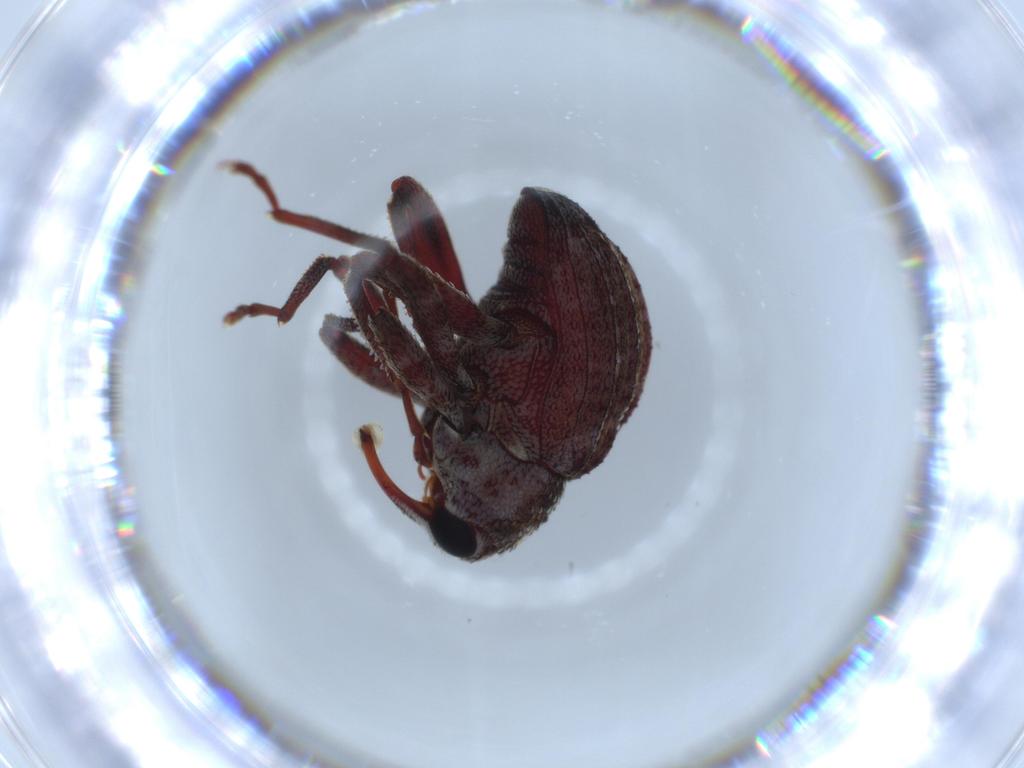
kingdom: Animalia
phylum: Arthropoda
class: Insecta
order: Coleoptera
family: Curculionidae
